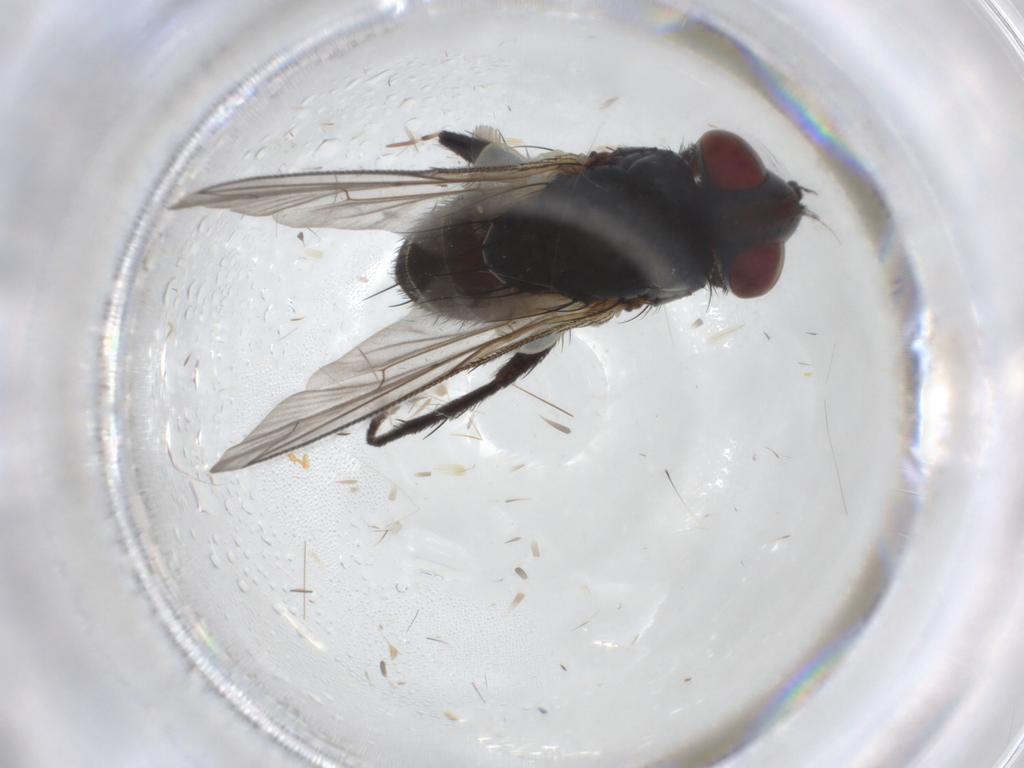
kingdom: Animalia
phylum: Arthropoda
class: Insecta
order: Diptera
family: Sarcophagidae
